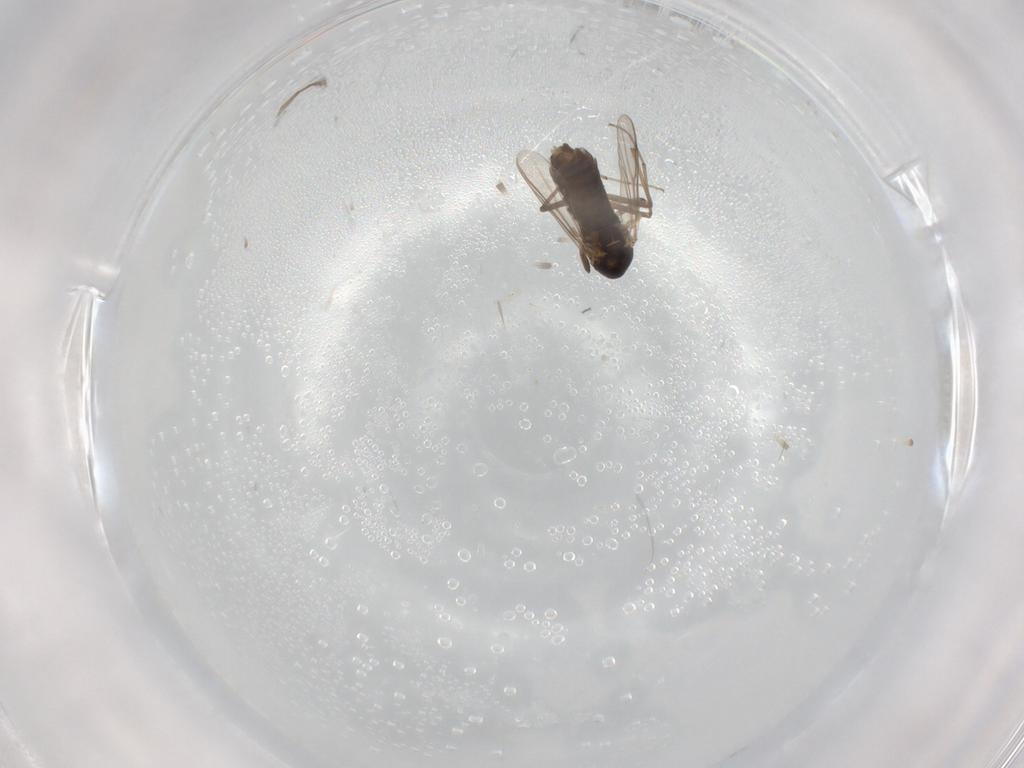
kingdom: Animalia
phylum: Arthropoda
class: Insecta
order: Diptera
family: Chironomidae
